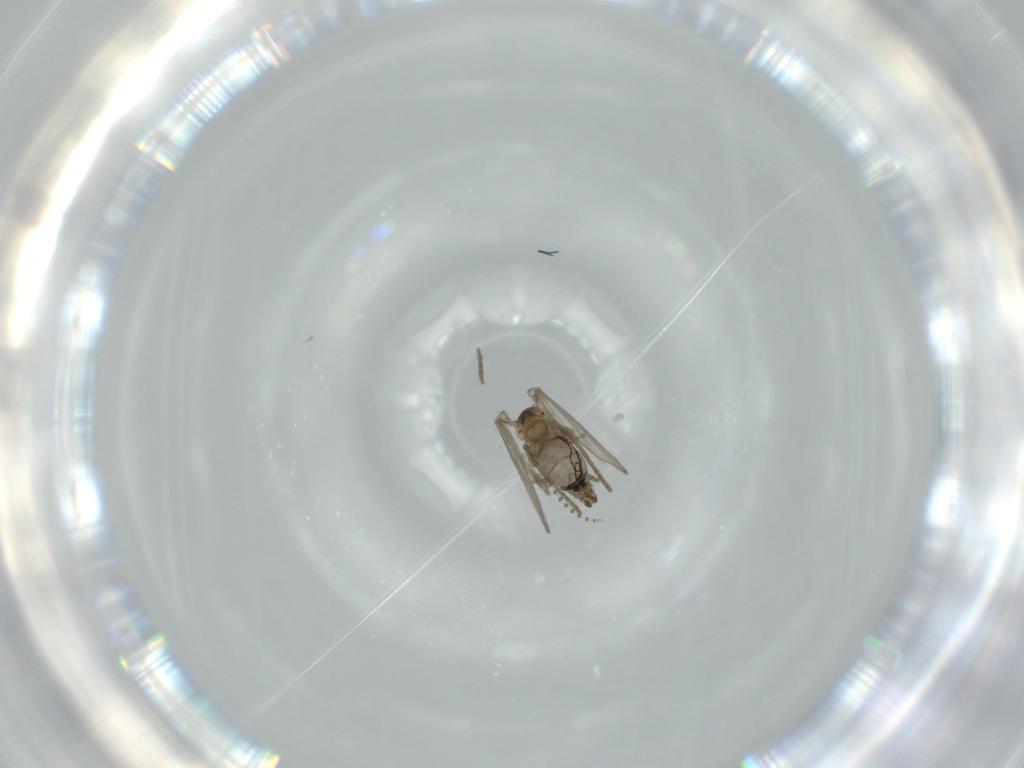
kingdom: Animalia
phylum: Arthropoda
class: Insecta
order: Diptera
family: Psychodidae
